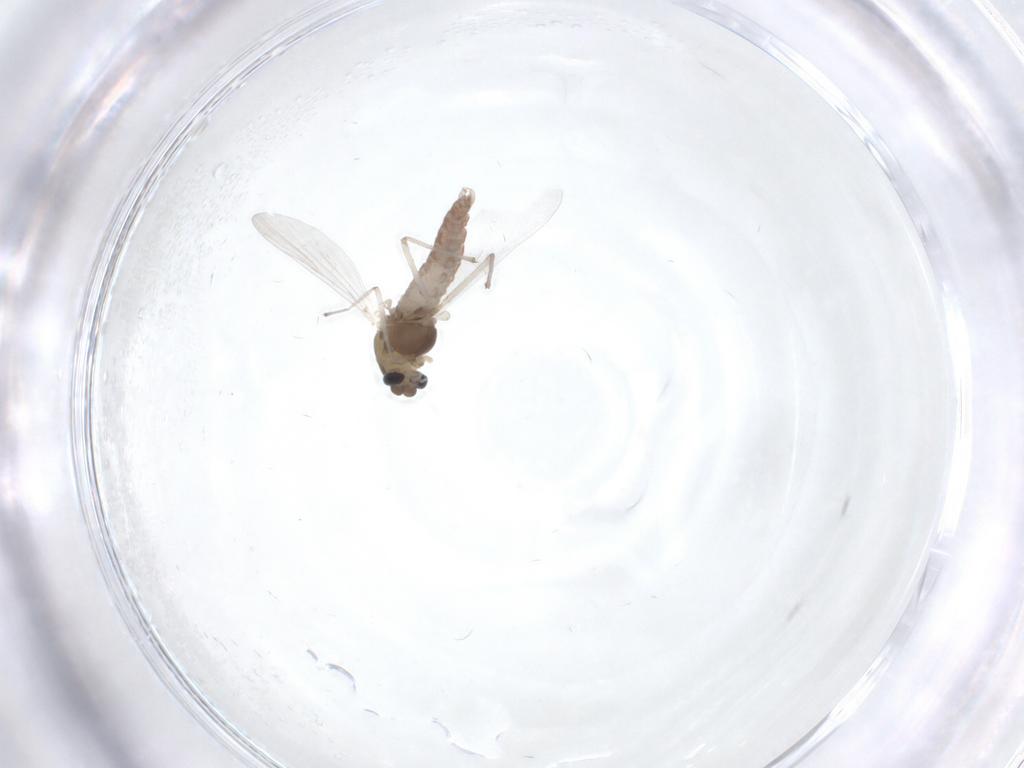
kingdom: Animalia
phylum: Arthropoda
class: Insecta
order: Diptera
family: Chironomidae
